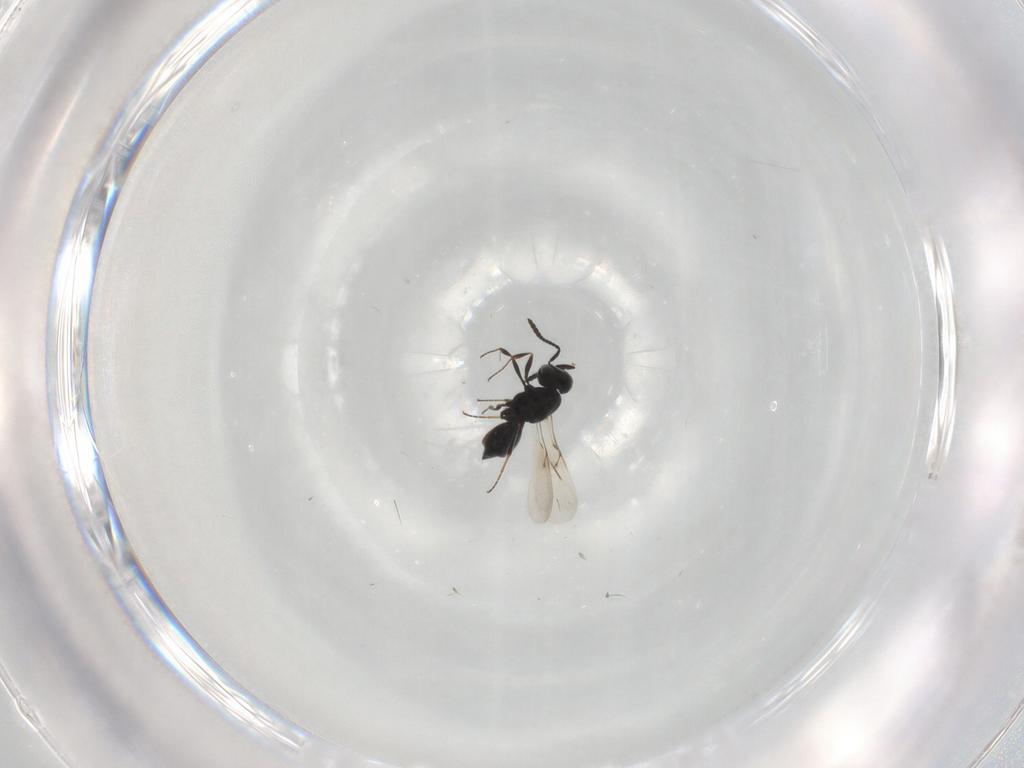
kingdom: Animalia
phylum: Arthropoda
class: Insecta
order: Hymenoptera
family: Scelionidae
